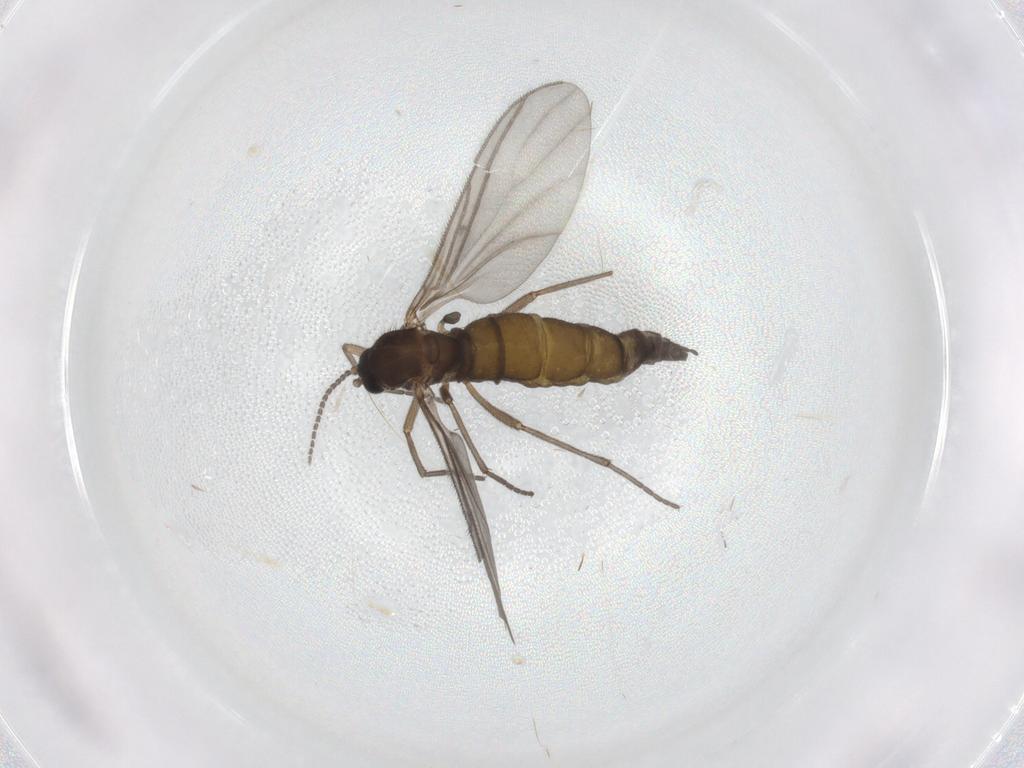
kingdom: Animalia
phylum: Arthropoda
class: Insecta
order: Diptera
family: Sciaridae
